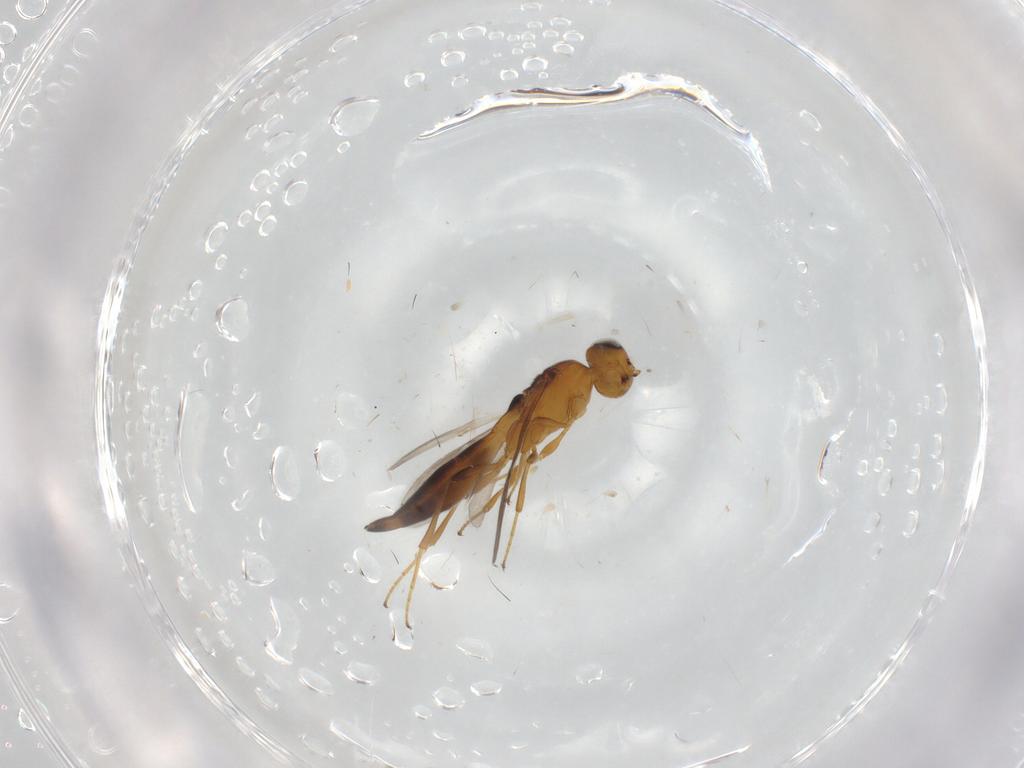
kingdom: Animalia
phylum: Arthropoda
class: Insecta
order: Hymenoptera
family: Scelionidae
